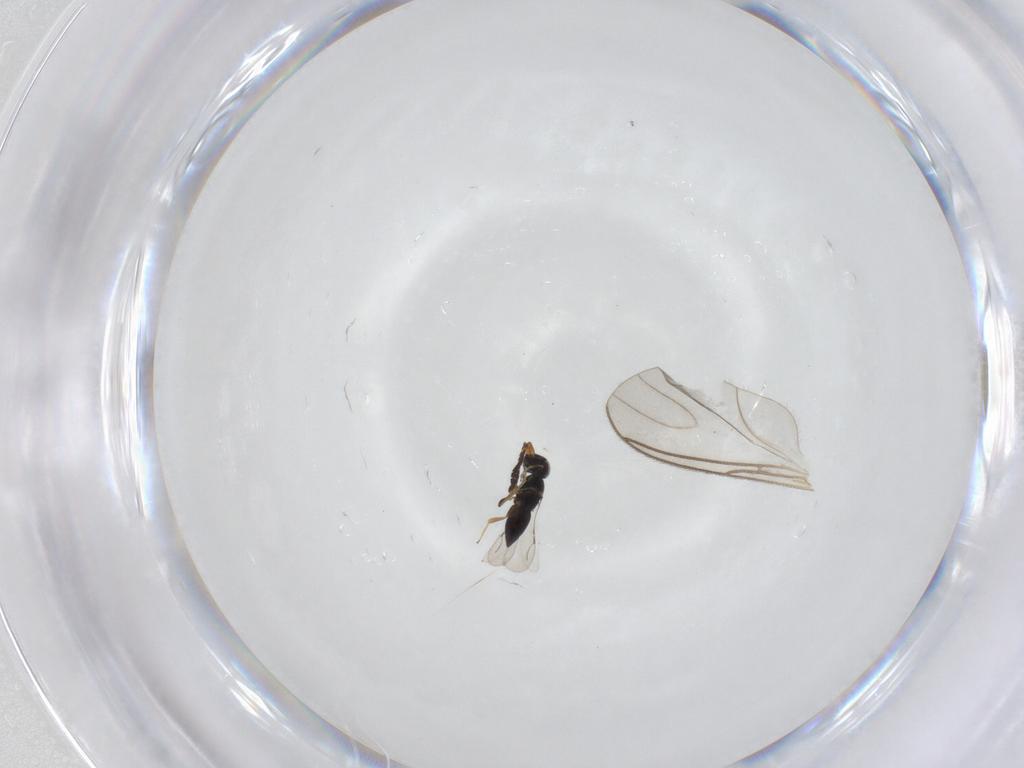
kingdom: Animalia
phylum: Arthropoda
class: Insecta
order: Diptera
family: Sciaridae
